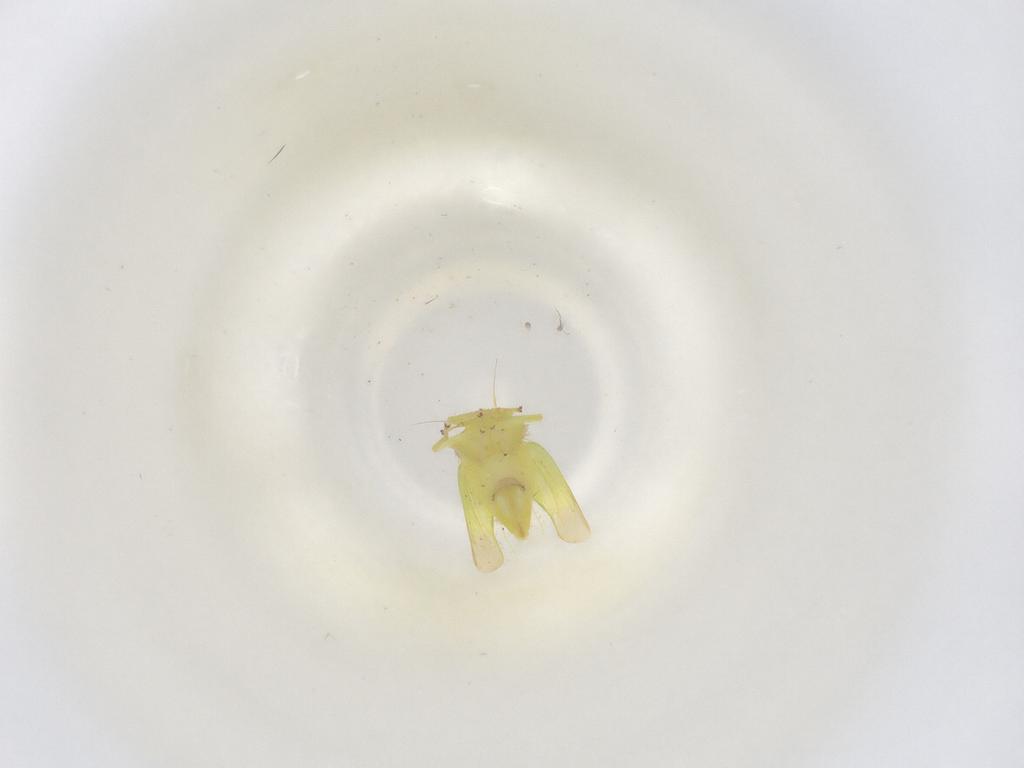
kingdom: Animalia
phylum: Arthropoda
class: Insecta
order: Hemiptera
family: Cicadellidae
